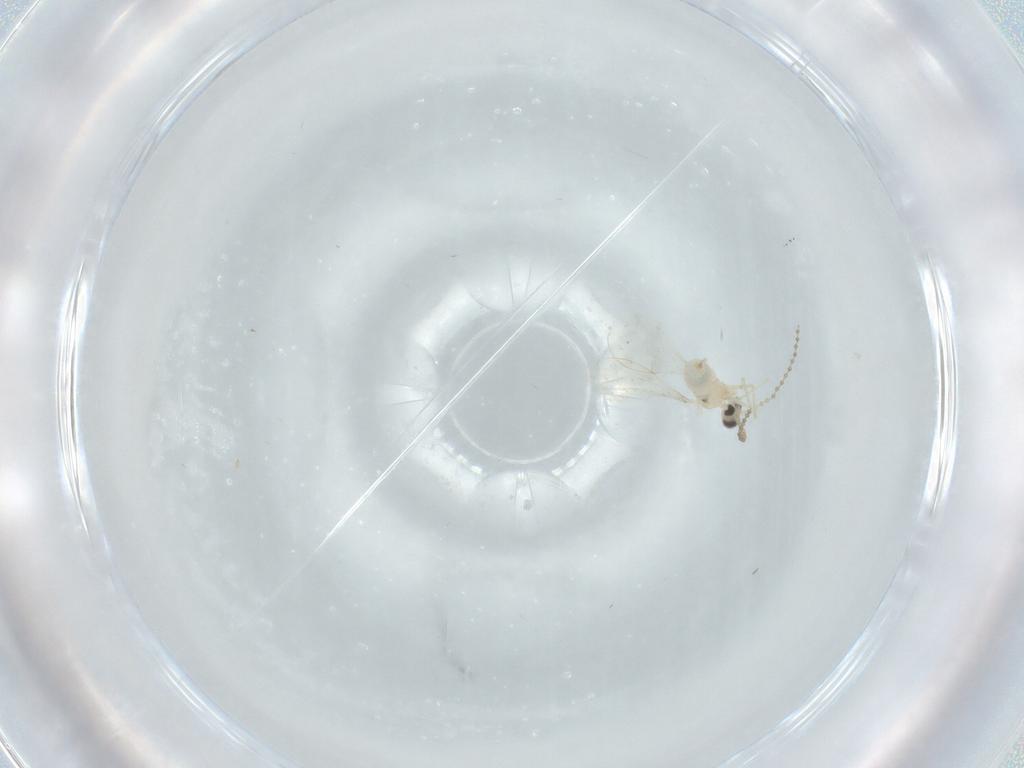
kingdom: Animalia
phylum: Arthropoda
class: Insecta
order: Diptera
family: Cecidomyiidae
